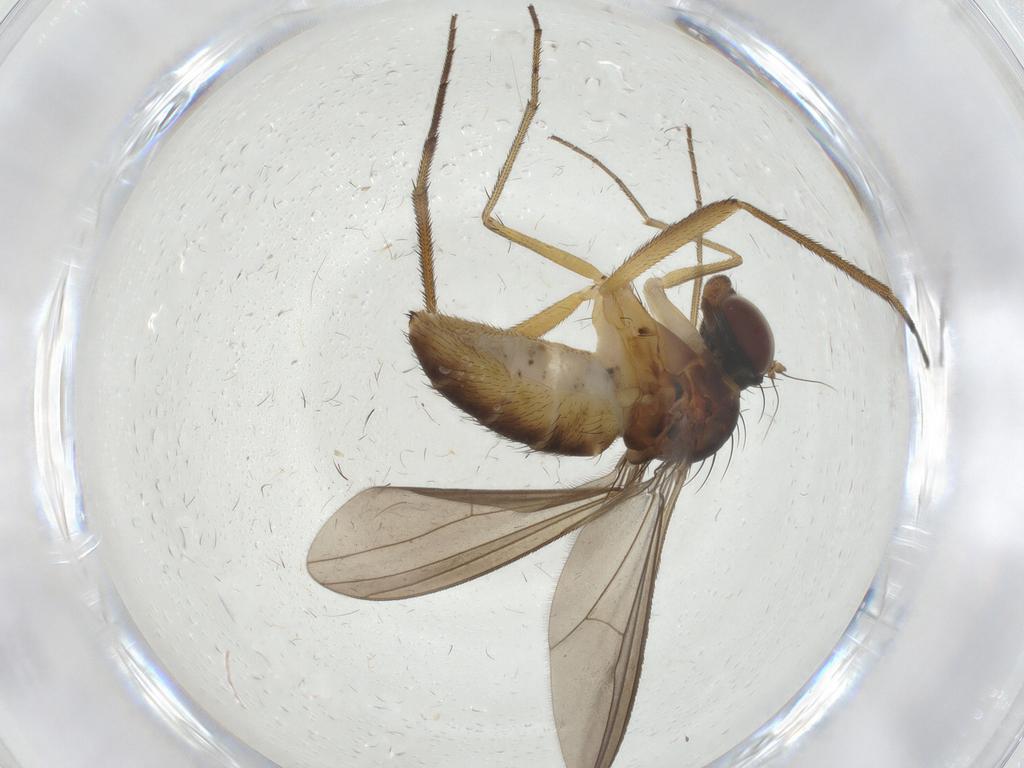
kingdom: Animalia
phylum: Arthropoda
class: Insecta
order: Diptera
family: Dolichopodidae
